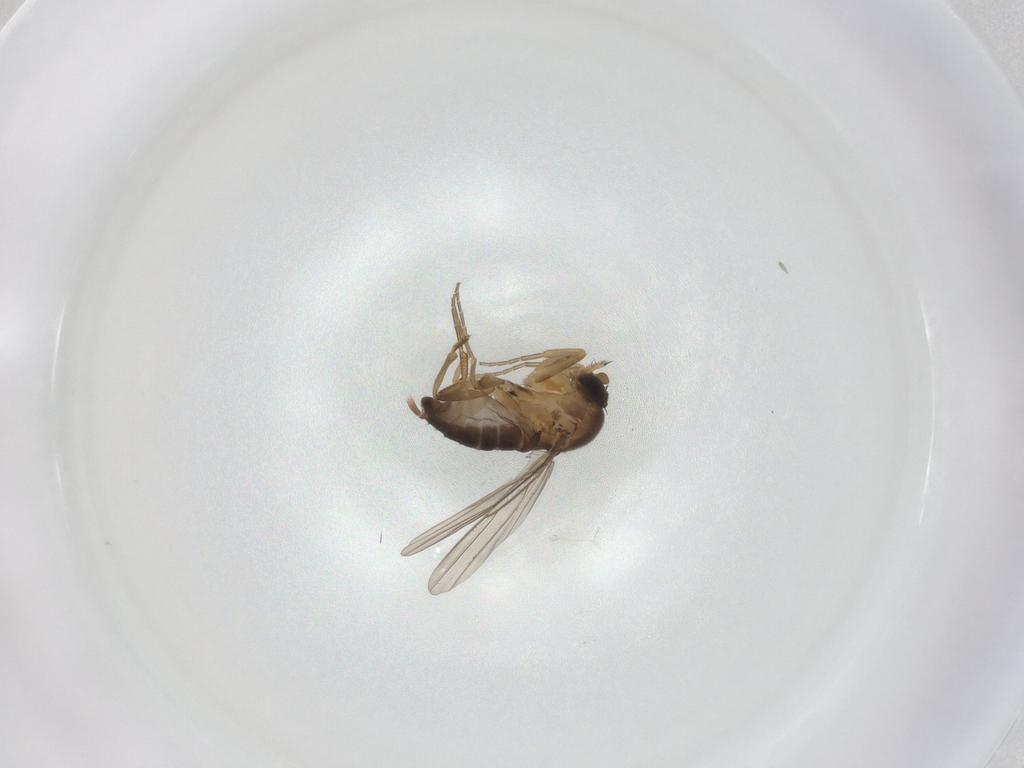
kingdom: Animalia
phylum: Arthropoda
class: Insecta
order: Diptera
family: Phoridae
